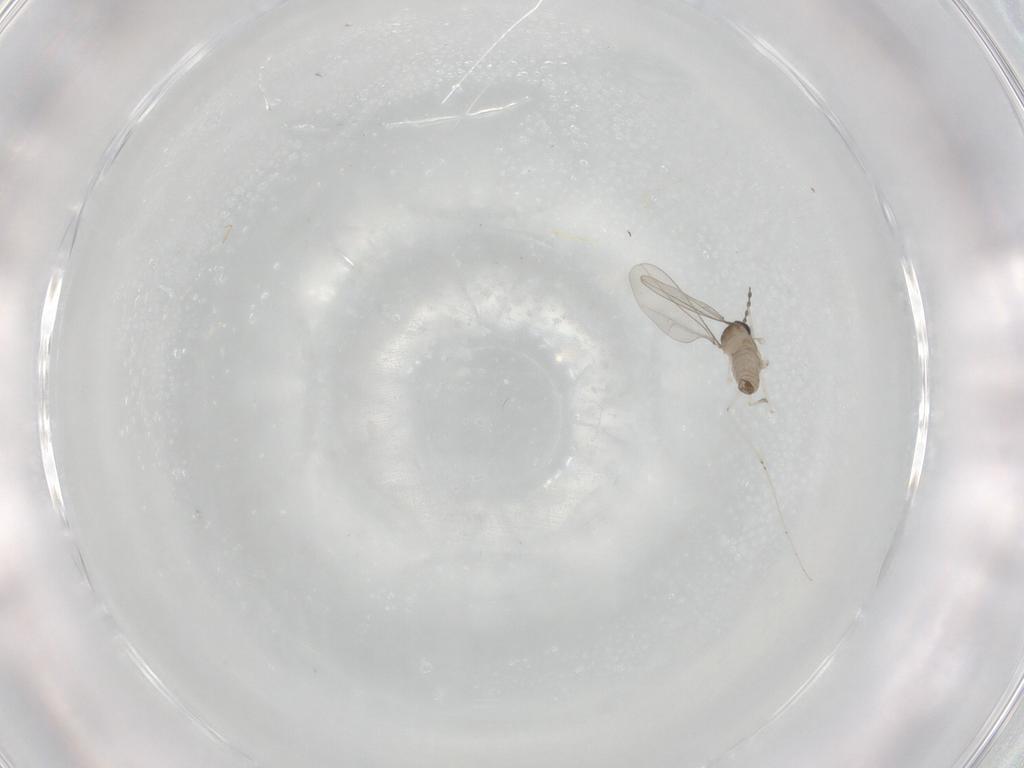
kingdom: Animalia
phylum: Arthropoda
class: Insecta
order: Diptera
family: Cecidomyiidae
